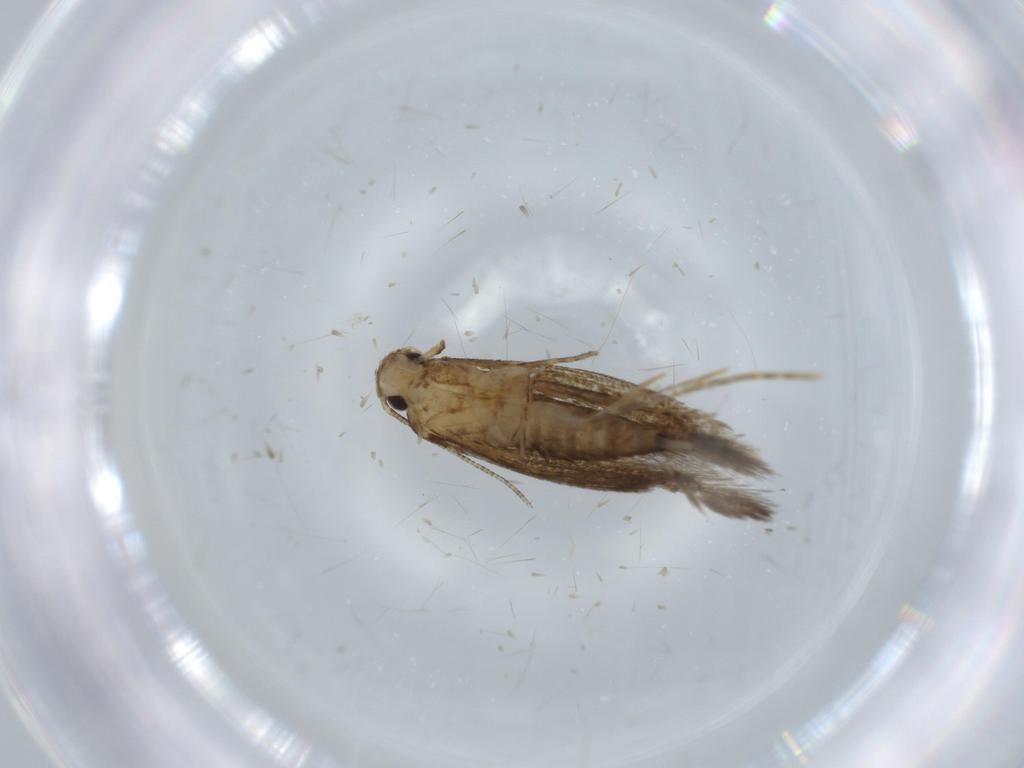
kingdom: Animalia
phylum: Arthropoda
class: Insecta
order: Lepidoptera
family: Tineidae
